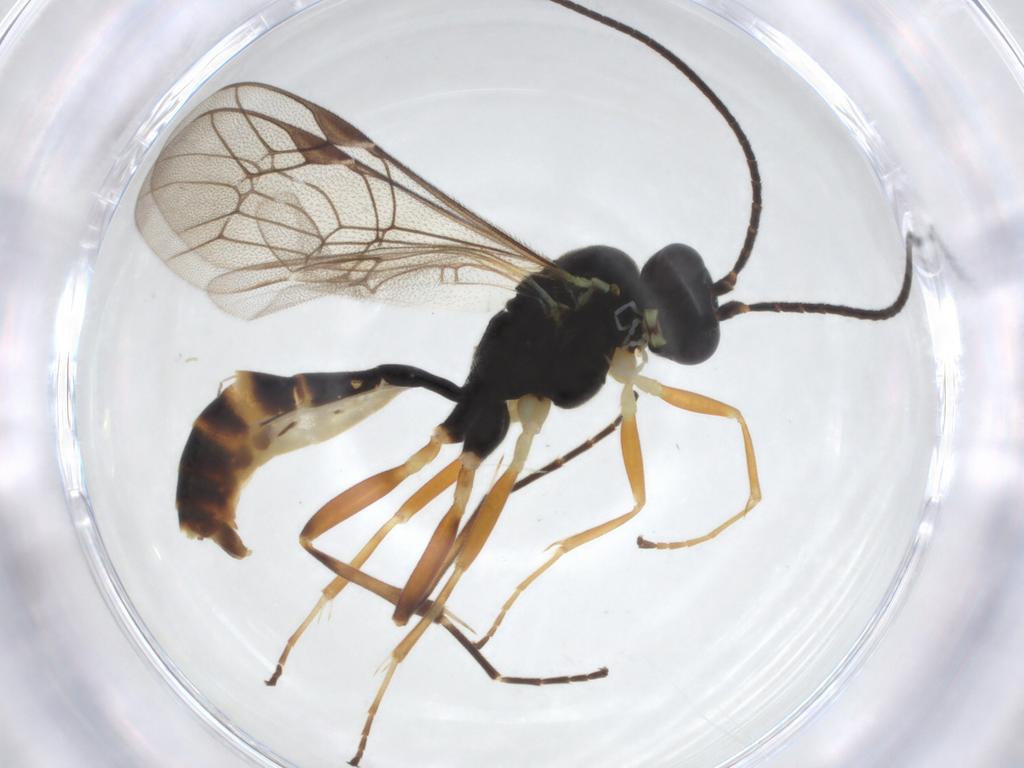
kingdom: Animalia
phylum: Arthropoda
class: Insecta
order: Hymenoptera
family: Ichneumonidae
